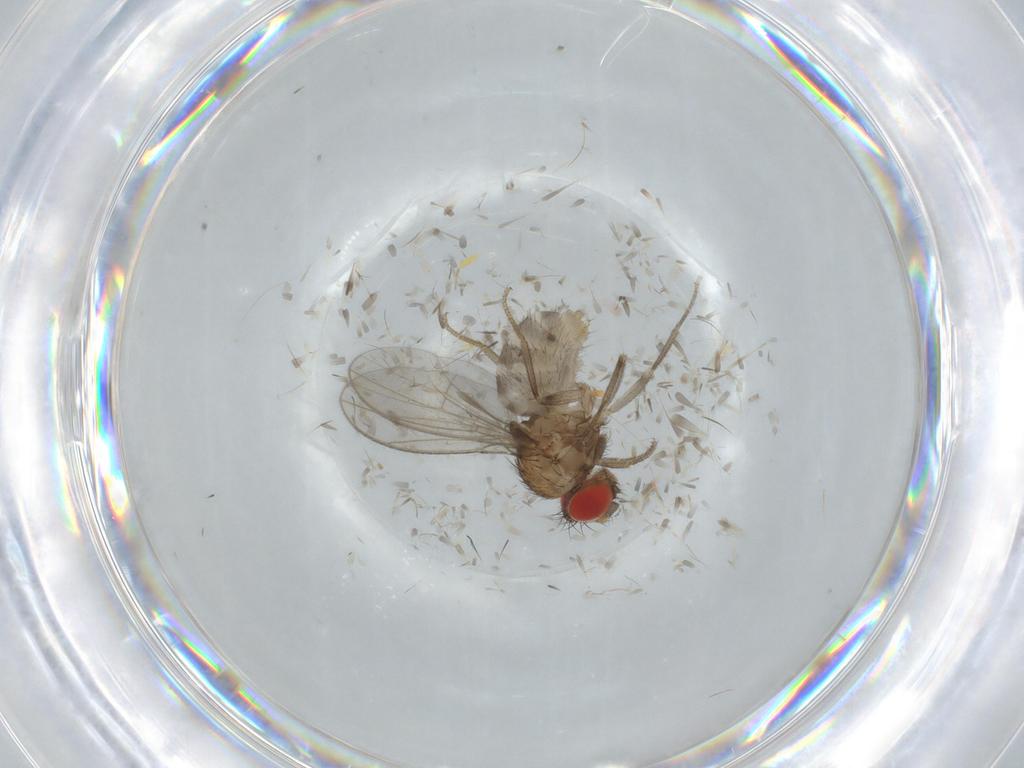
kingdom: Animalia
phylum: Arthropoda
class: Insecta
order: Diptera
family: Drosophilidae
